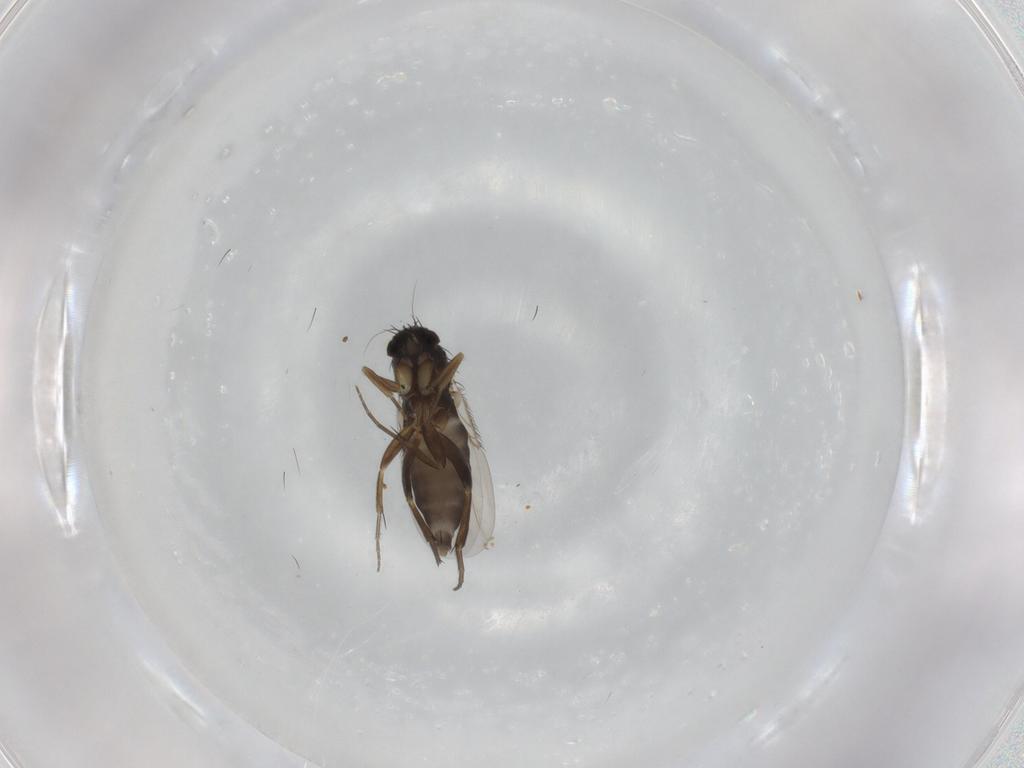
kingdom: Animalia
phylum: Arthropoda
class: Insecta
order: Diptera
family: Phoridae
